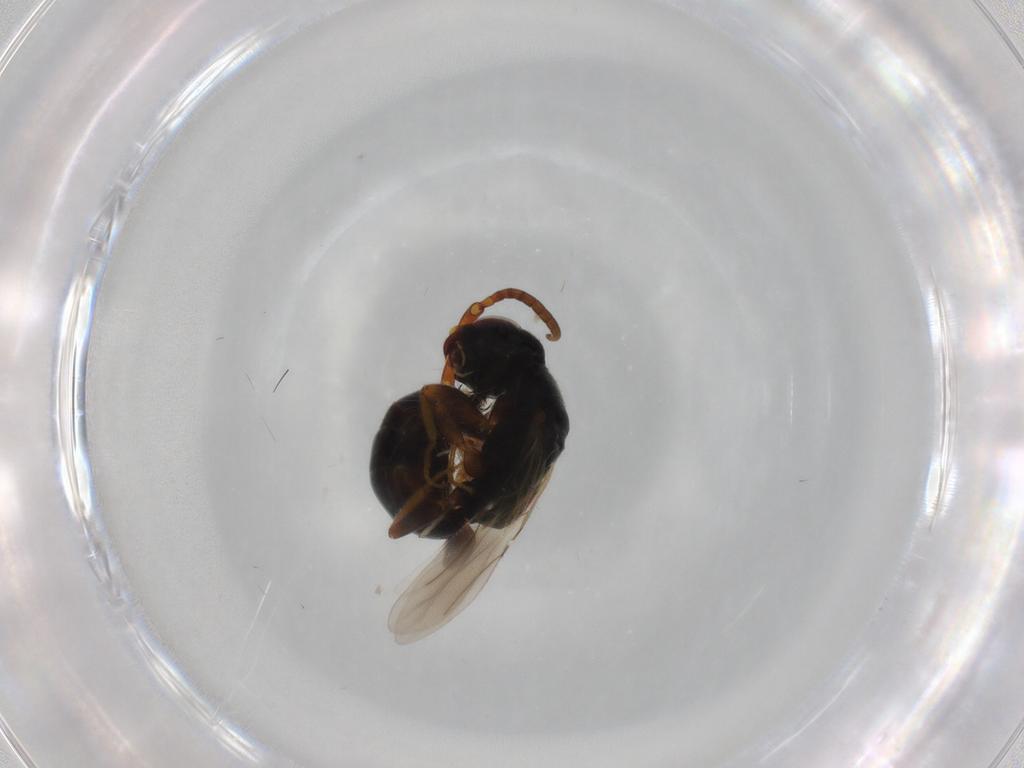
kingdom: Animalia
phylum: Arthropoda
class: Insecta
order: Hymenoptera
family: Bethylidae
